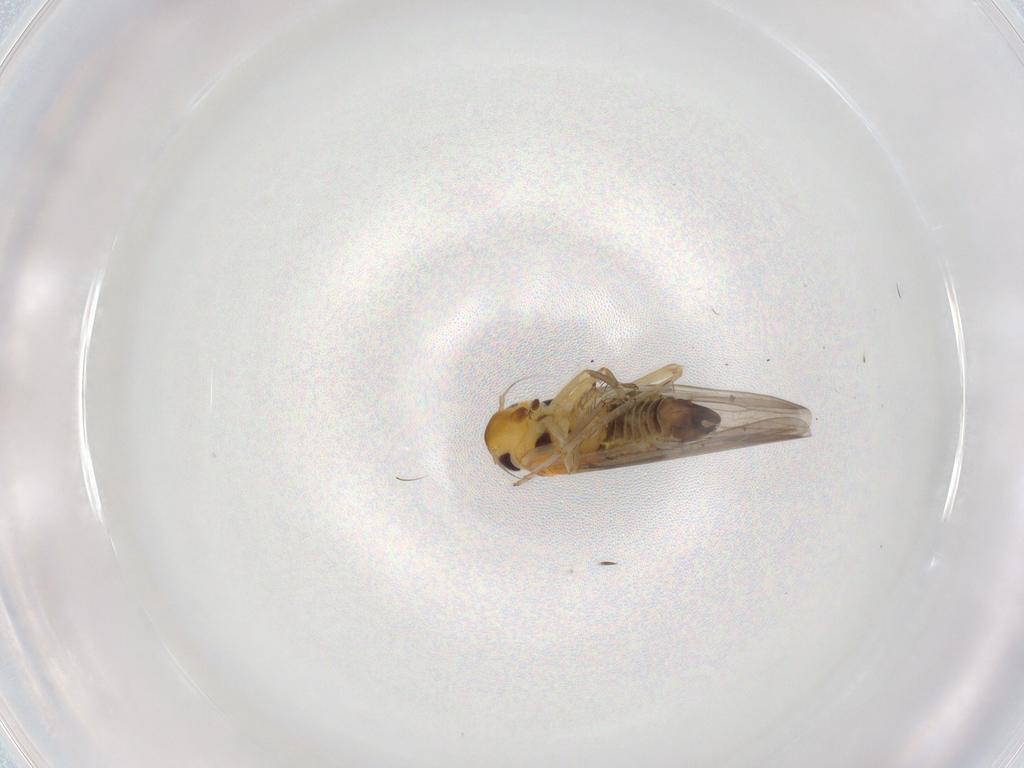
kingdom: Animalia
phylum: Arthropoda
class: Insecta
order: Hemiptera
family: Cicadellidae
